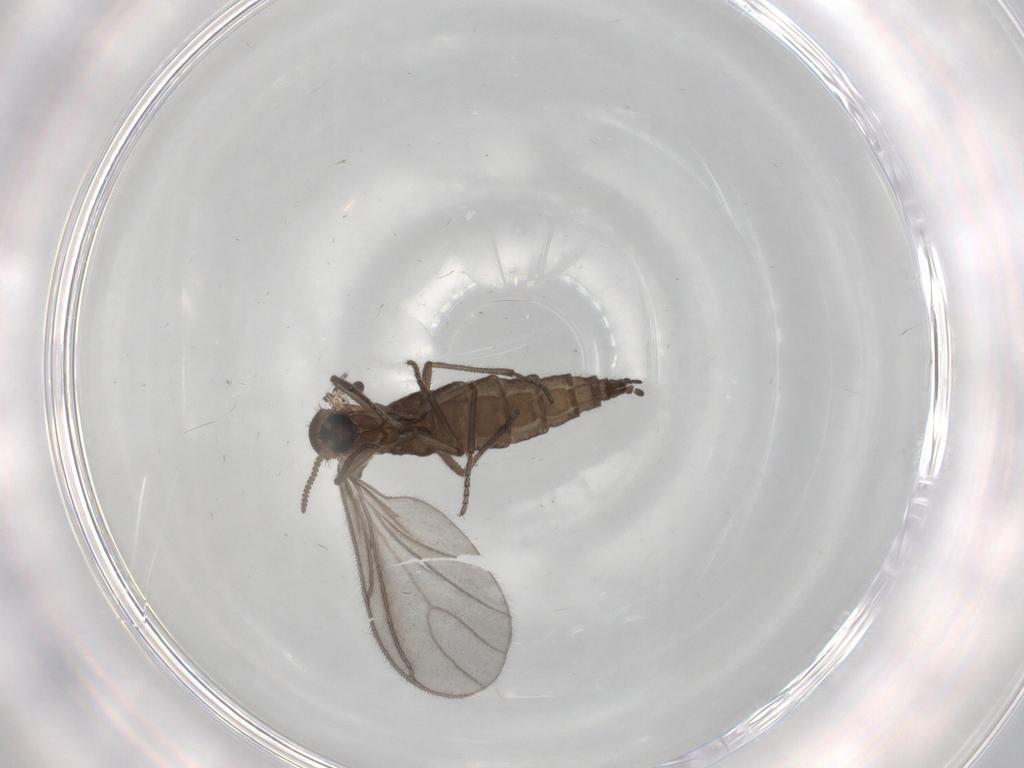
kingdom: Animalia
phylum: Arthropoda
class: Insecta
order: Diptera
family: Sciaridae
